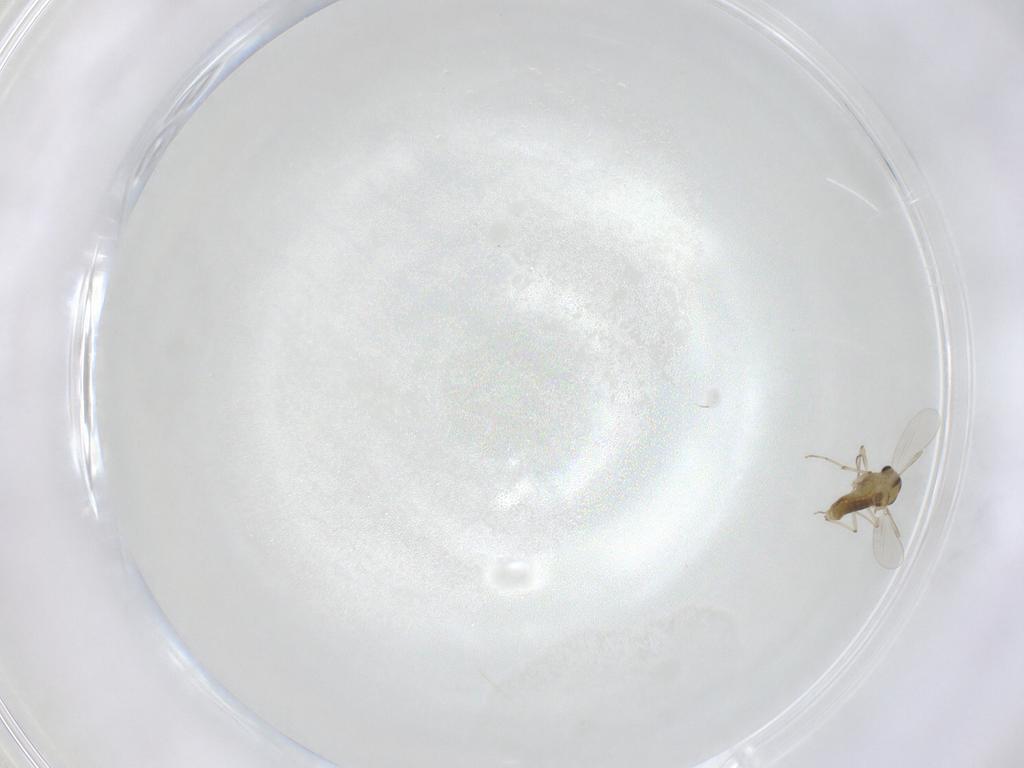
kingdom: Animalia
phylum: Arthropoda
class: Insecta
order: Diptera
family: Chironomidae
